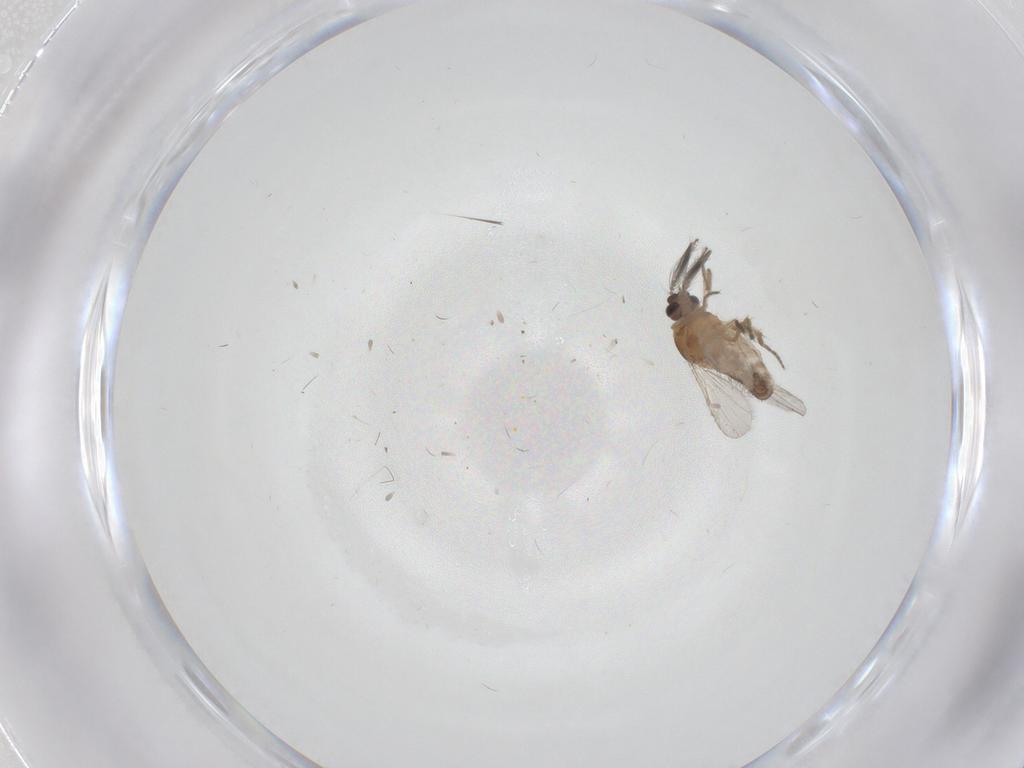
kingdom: Animalia
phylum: Arthropoda
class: Insecta
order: Diptera
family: Ceratopogonidae
